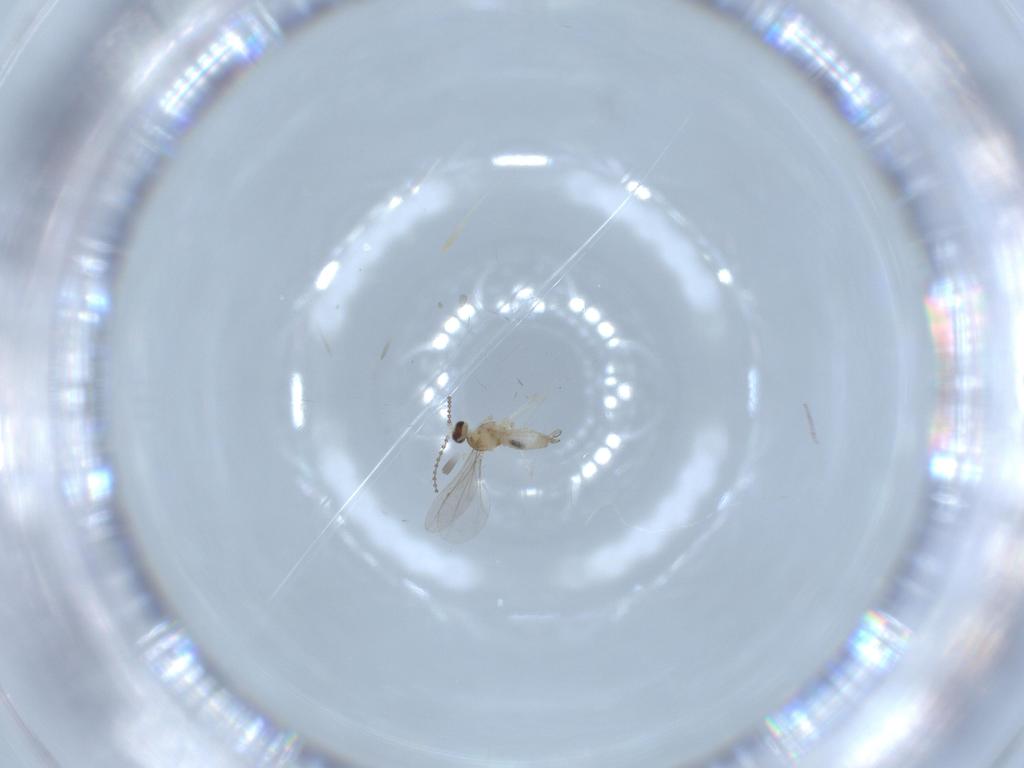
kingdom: Animalia
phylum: Arthropoda
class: Insecta
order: Diptera
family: Cecidomyiidae
